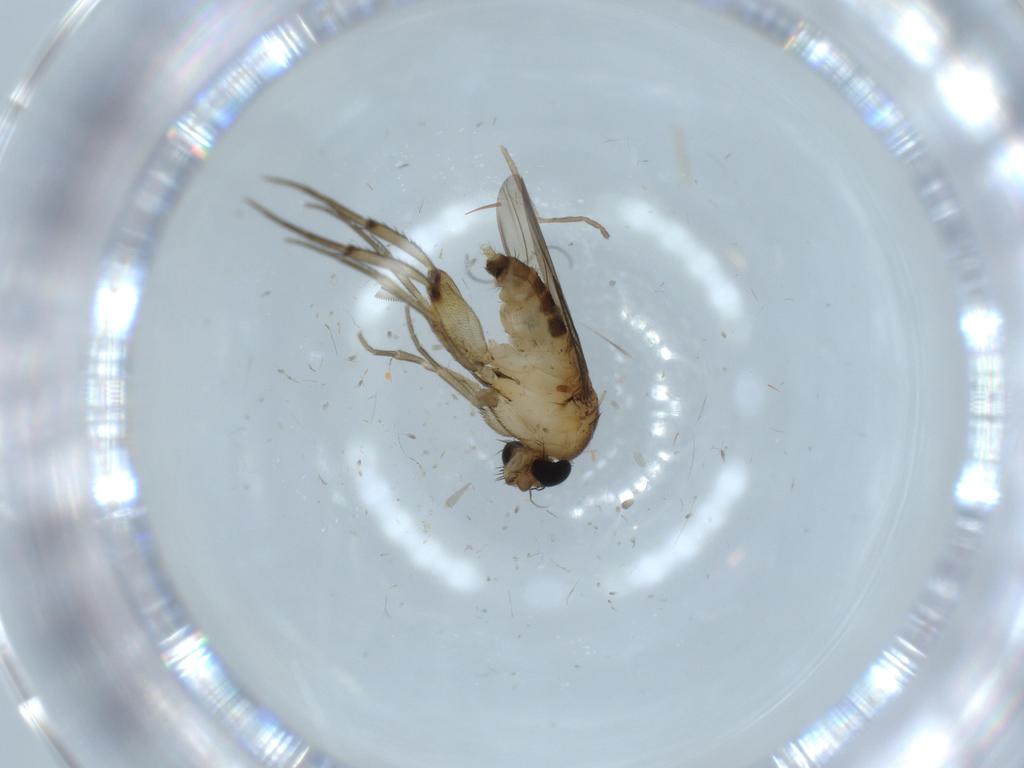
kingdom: Animalia
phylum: Arthropoda
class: Insecta
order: Diptera
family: Phoridae
